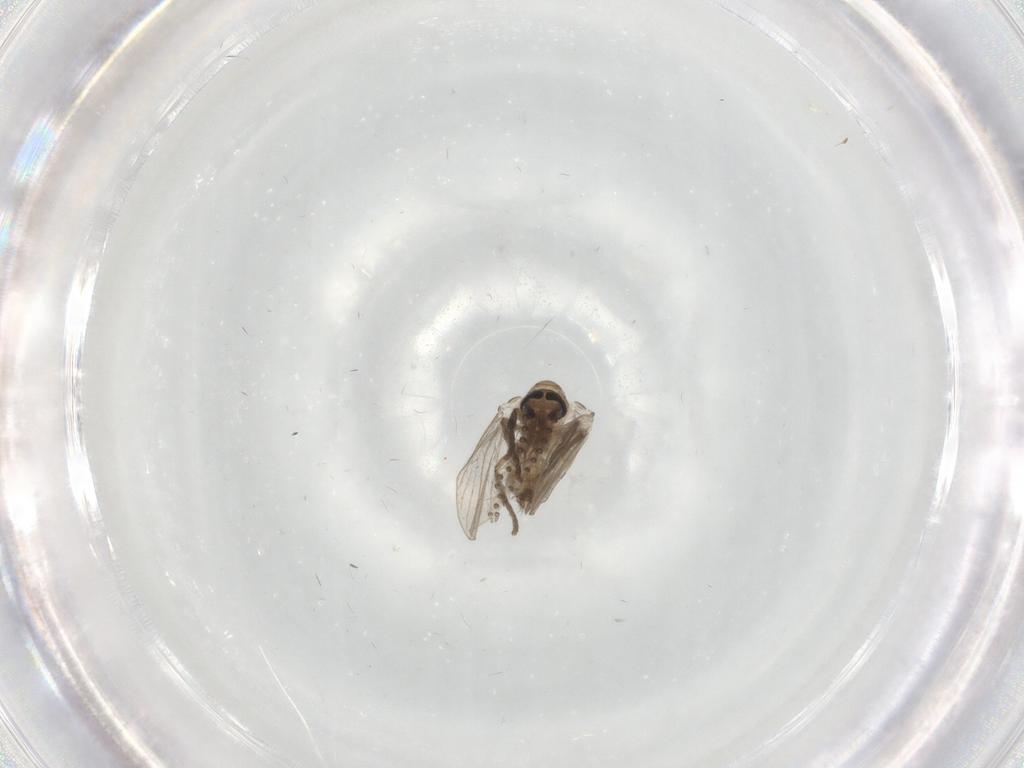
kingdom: Animalia
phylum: Arthropoda
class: Insecta
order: Diptera
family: Psychodidae
